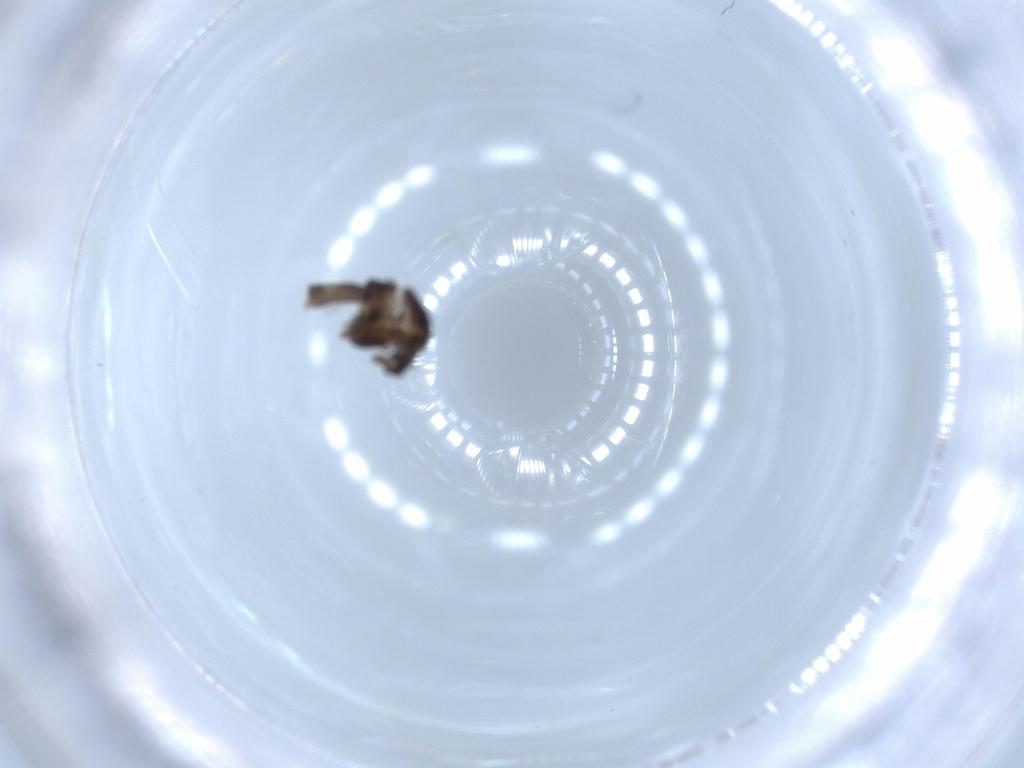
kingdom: Animalia
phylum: Arthropoda
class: Insecta
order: Diptera
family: Chironomidae
